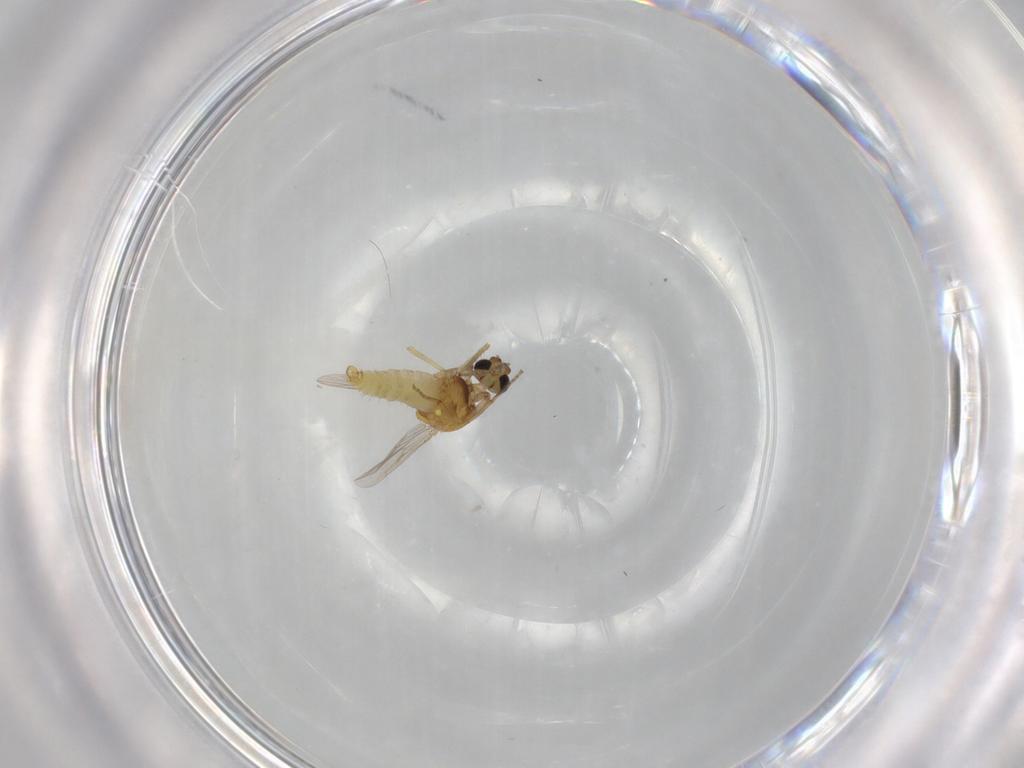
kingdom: Animalia
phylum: Arthropoda
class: Insecta
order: Diptera
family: Ceratopogonidae
